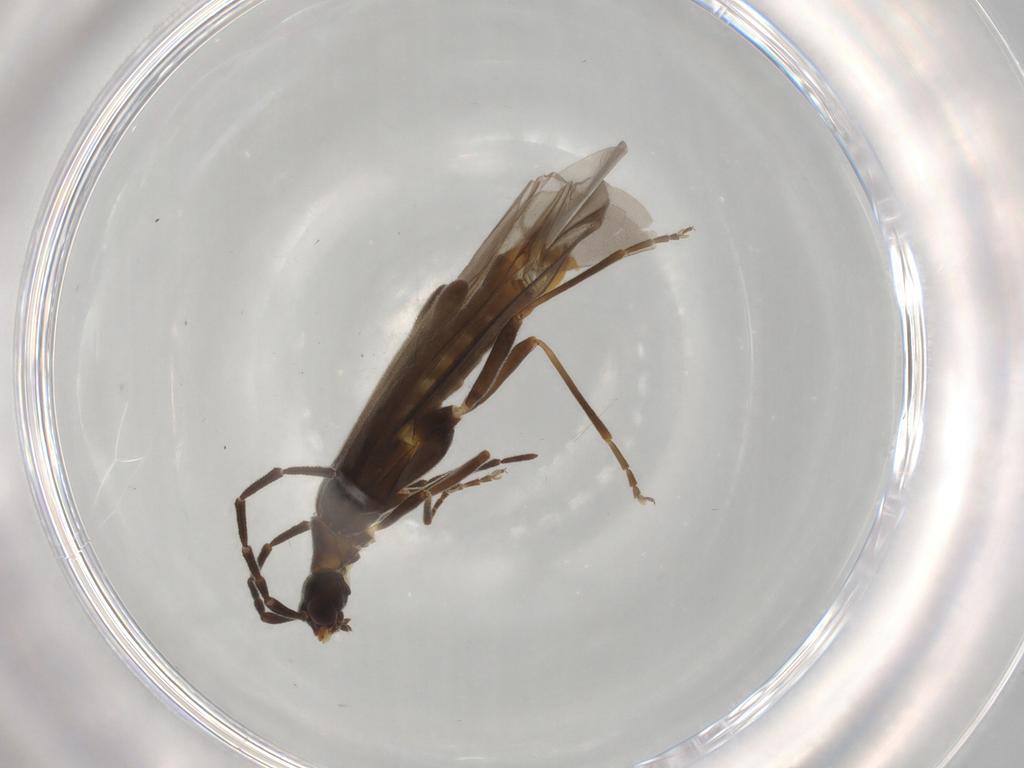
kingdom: Animalia
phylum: Arthropoda
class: Insecta
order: Coleoptera
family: Cantharidae
